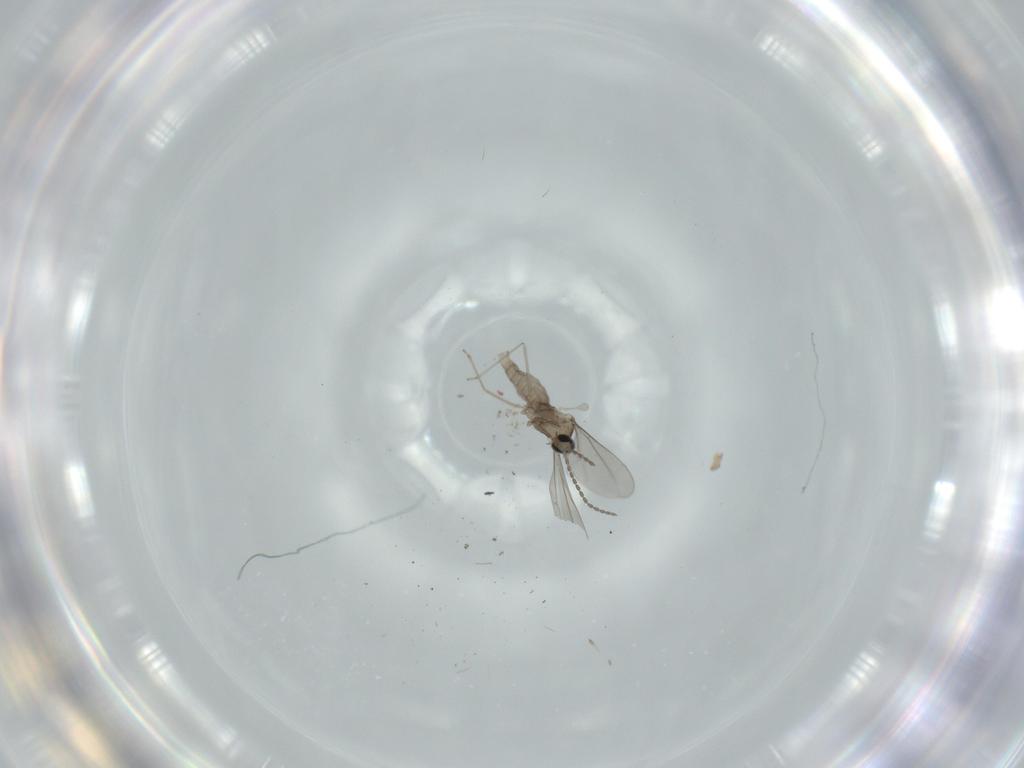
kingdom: Animalia
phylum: Arthropoda
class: Insecta
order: Diptera
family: Cecidomyiidae
